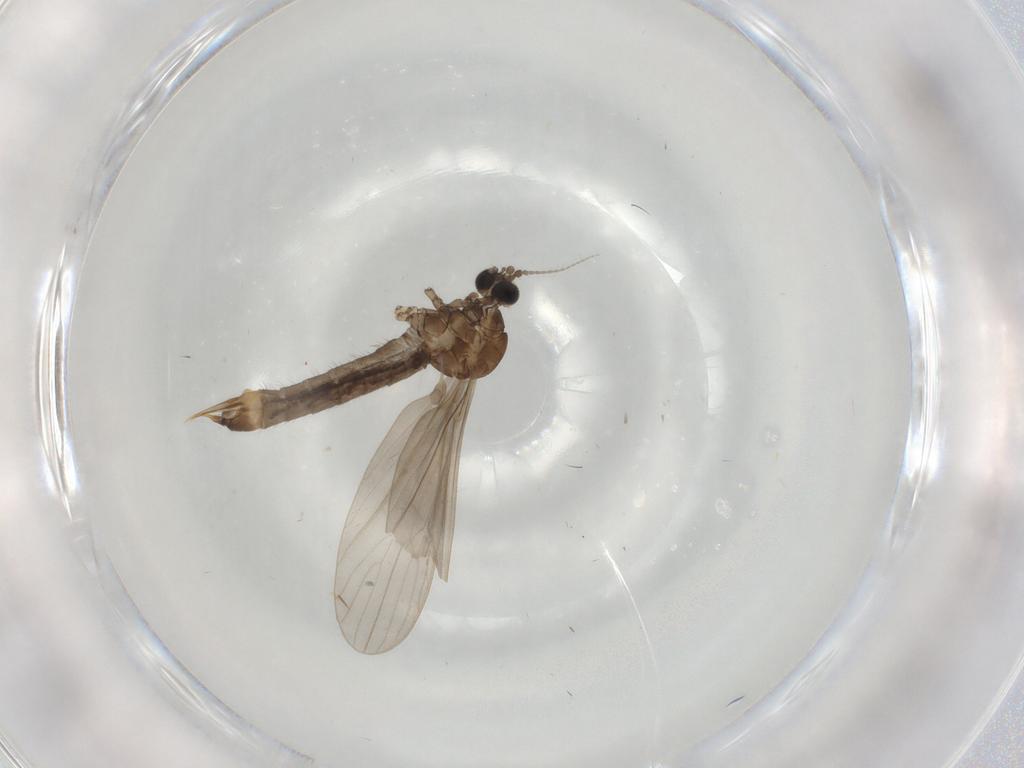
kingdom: Animalia
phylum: Arthropoda
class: Insecta
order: Diptera
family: Limoniidae
